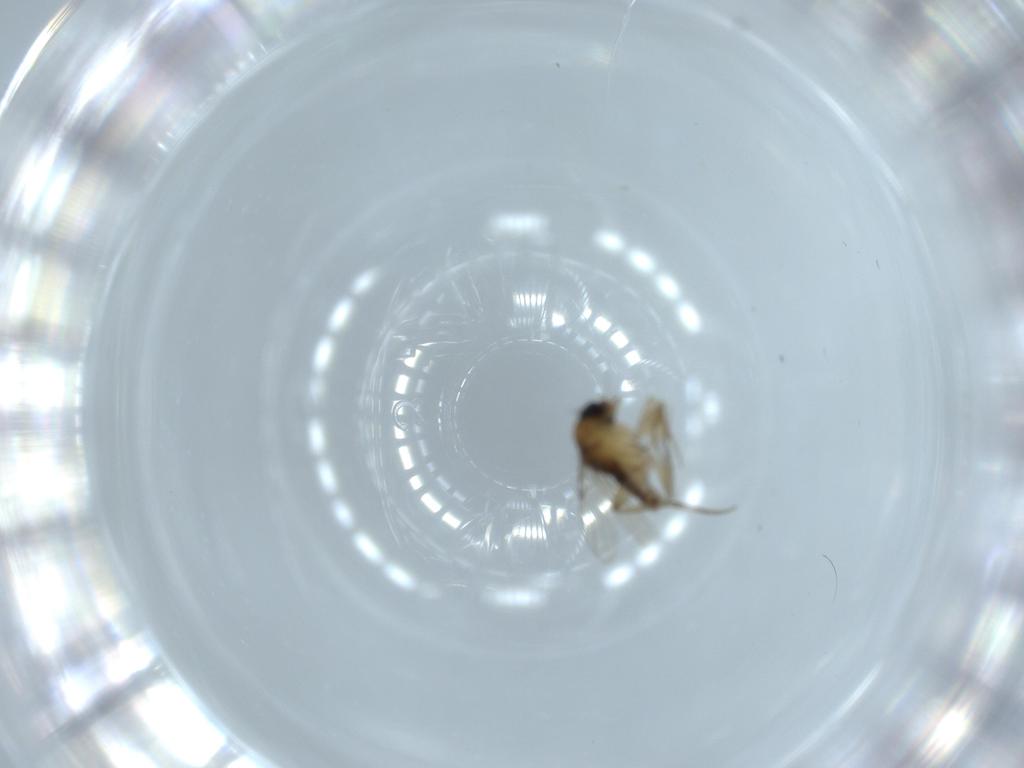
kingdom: Animalia
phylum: Arthropoda
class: Insecta
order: Diptera
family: Phoridae
